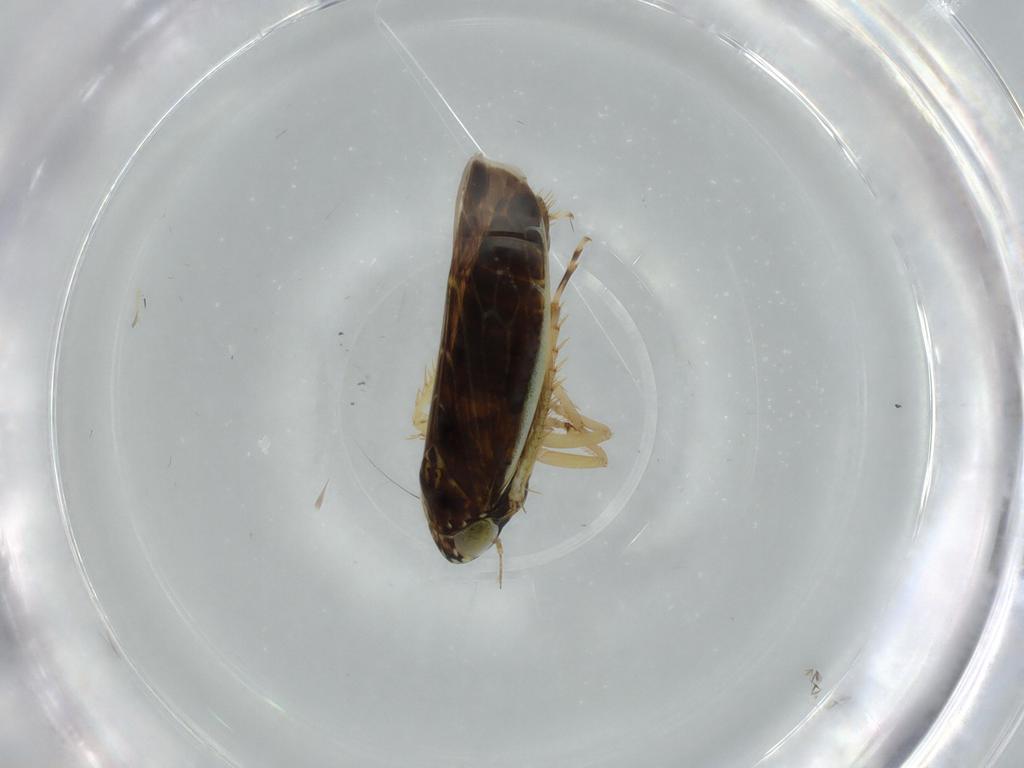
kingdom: Animalia
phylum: Arthropoda
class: Insecta
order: Hemiptera
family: Cicadellidae
